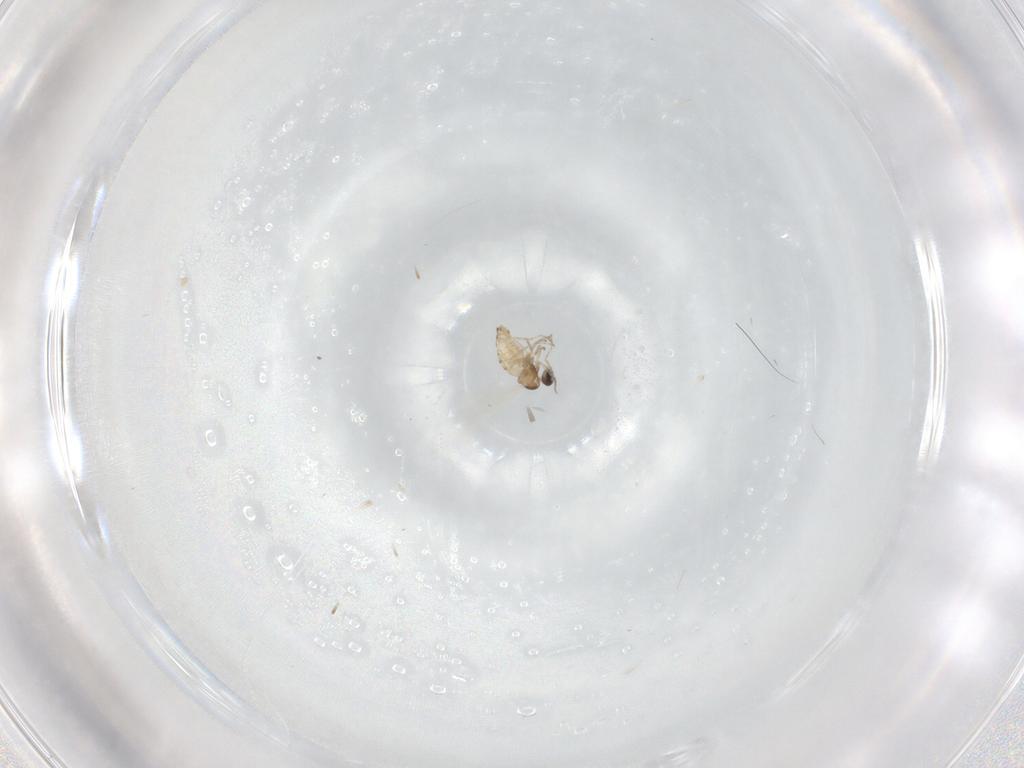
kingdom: Animalia
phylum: Arthropoda
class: Insecta
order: Diptera
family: Cecidomyiidae
